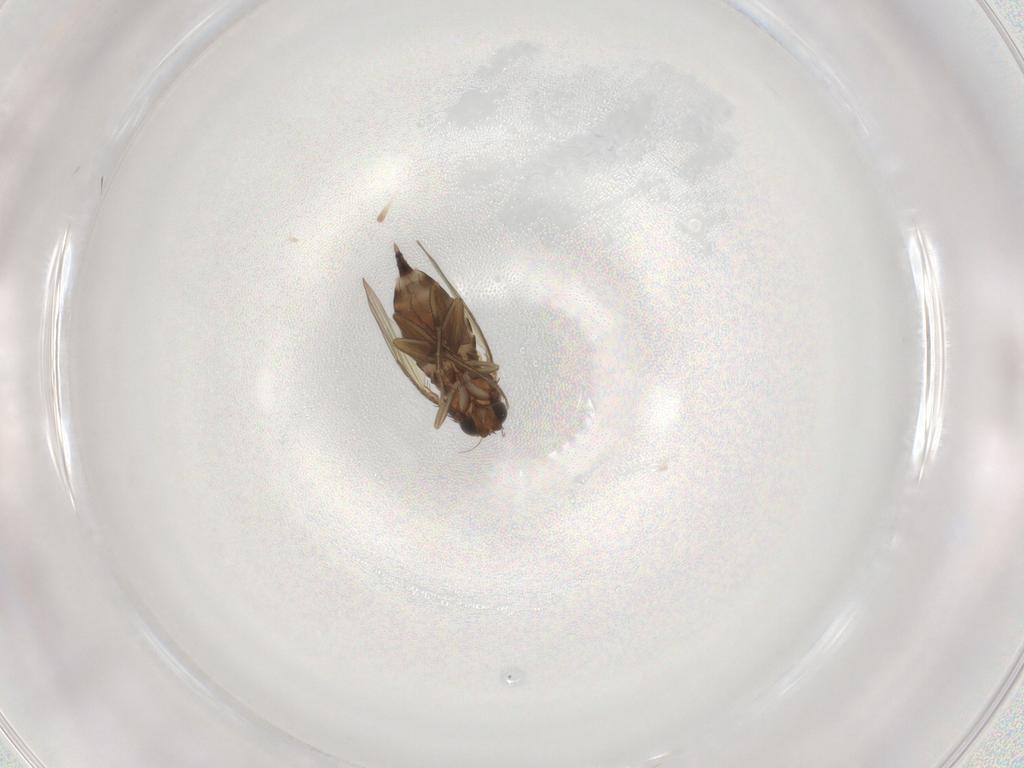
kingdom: Animalia
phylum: Arthropoda
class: Insecta
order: Diptera
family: Phoridae
